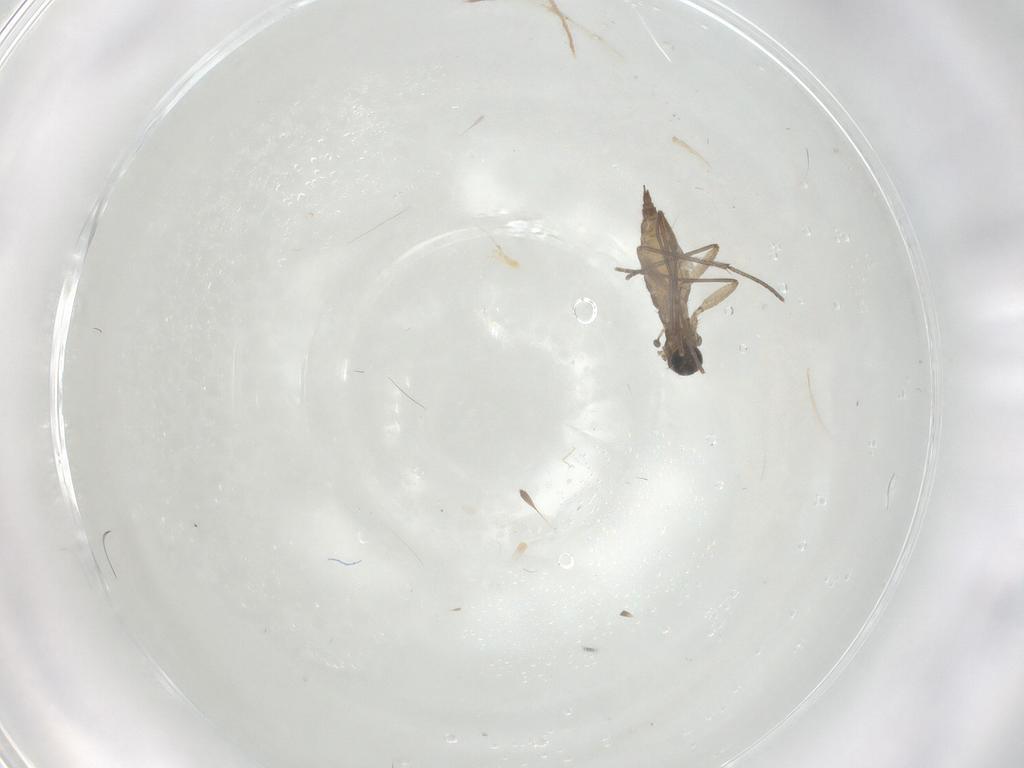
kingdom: Animalia
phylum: Arthropoda
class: Insecta
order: Diptera
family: Sciaridae
